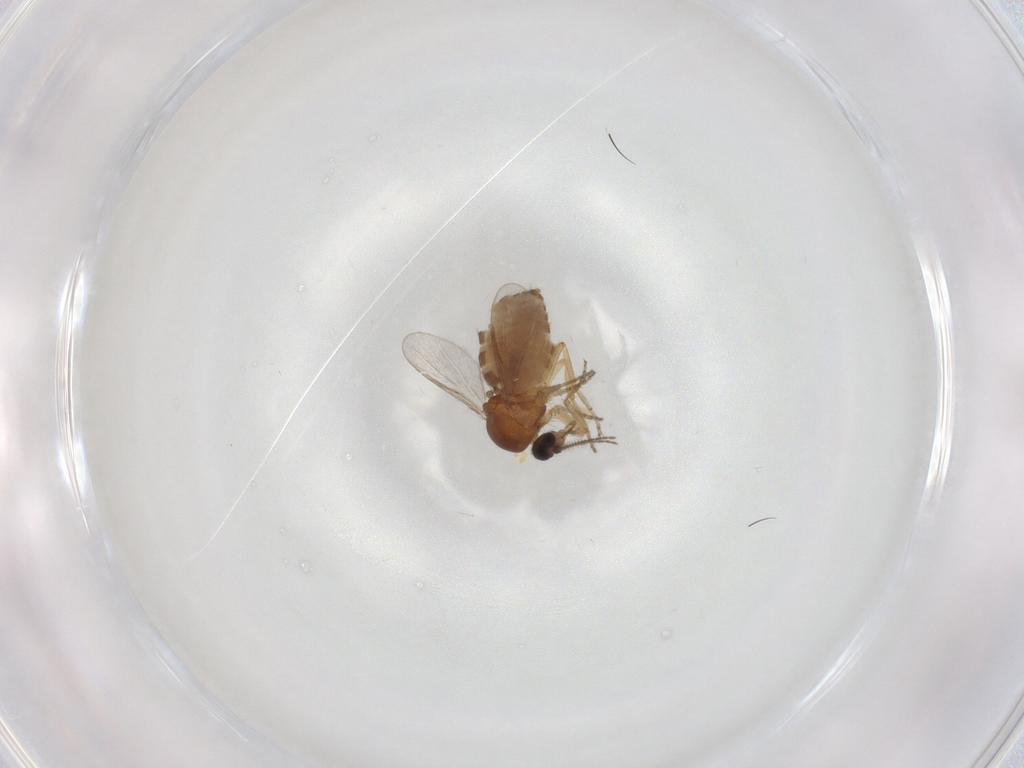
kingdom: Animalia
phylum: Arthropoda
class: Insecta
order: Diptera
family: Ceratopogonidae
